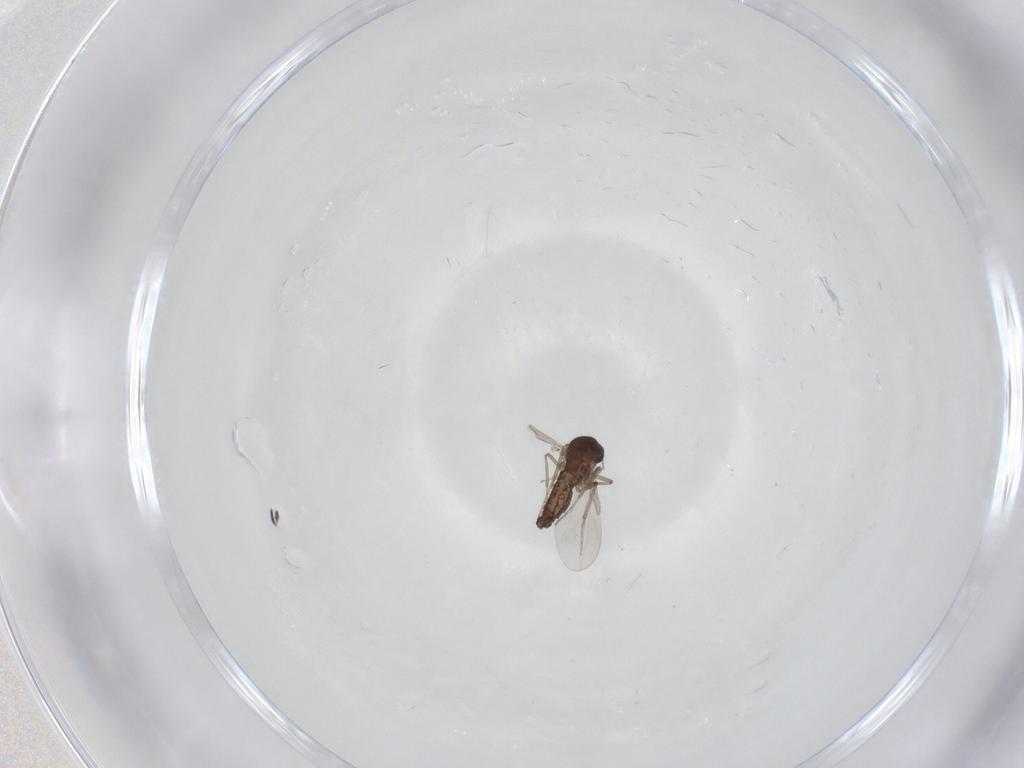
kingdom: Animalia
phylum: Arthropoda
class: Insecta
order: Diptera
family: Ceratopogonidae
